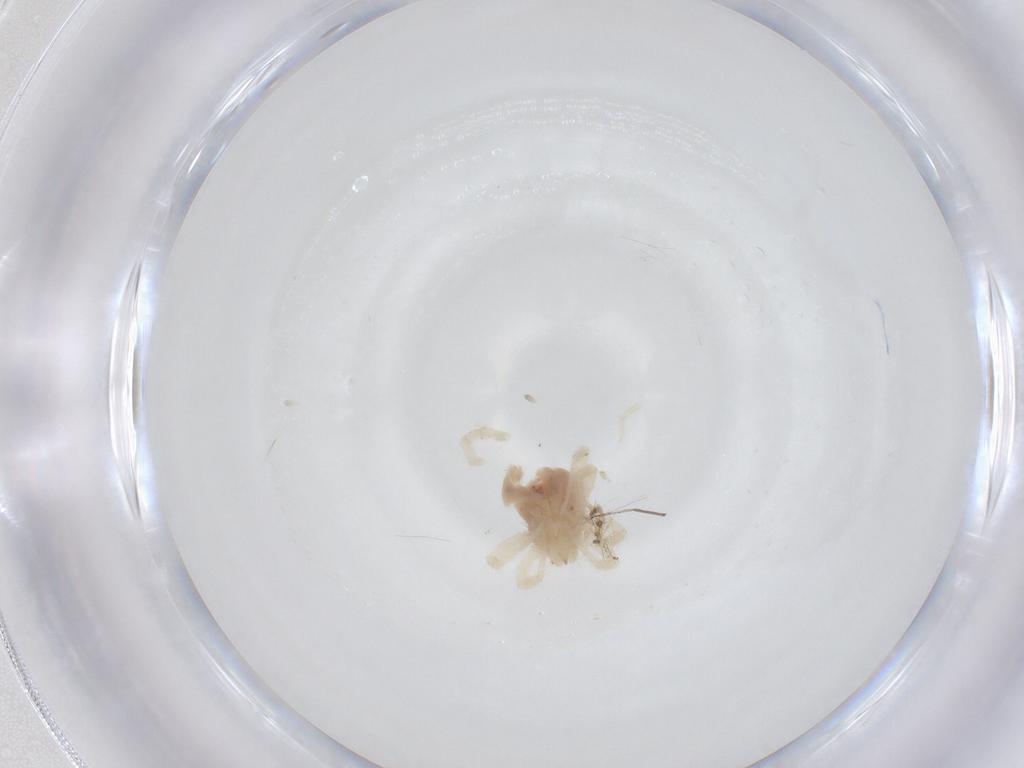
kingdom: Animalia
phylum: Arthropoda
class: Arachnida
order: Trombidiformes
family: Anystidae
